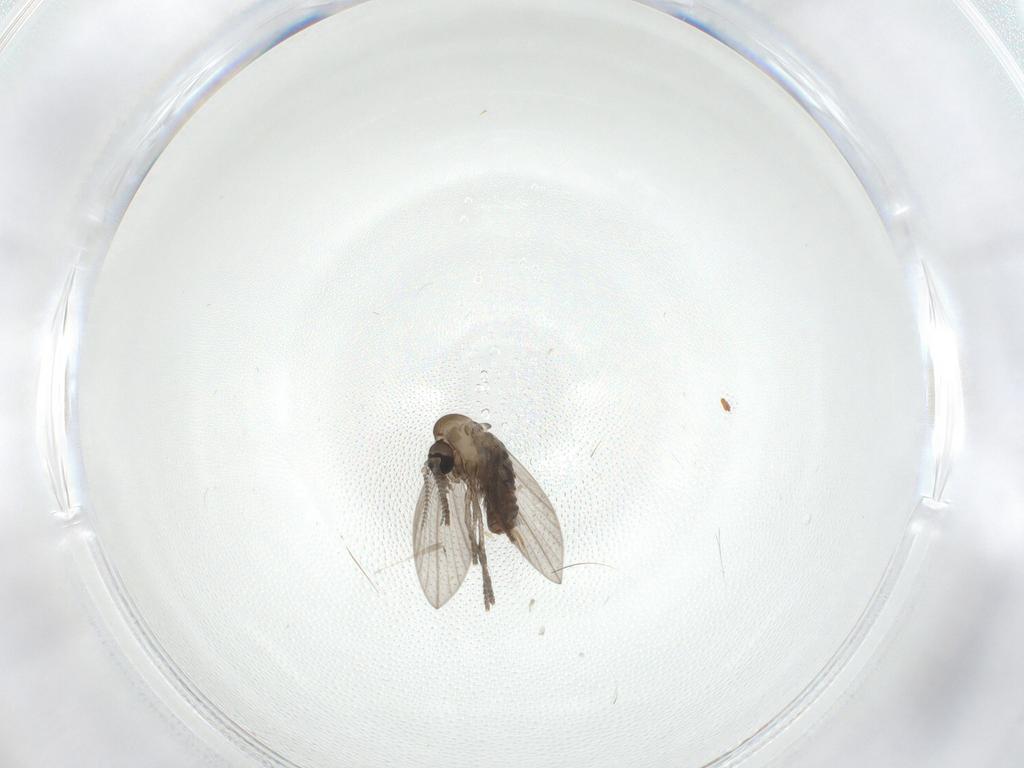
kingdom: Animalia
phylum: Arthropoda
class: Insecta
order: Diptera
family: Psychodidae
